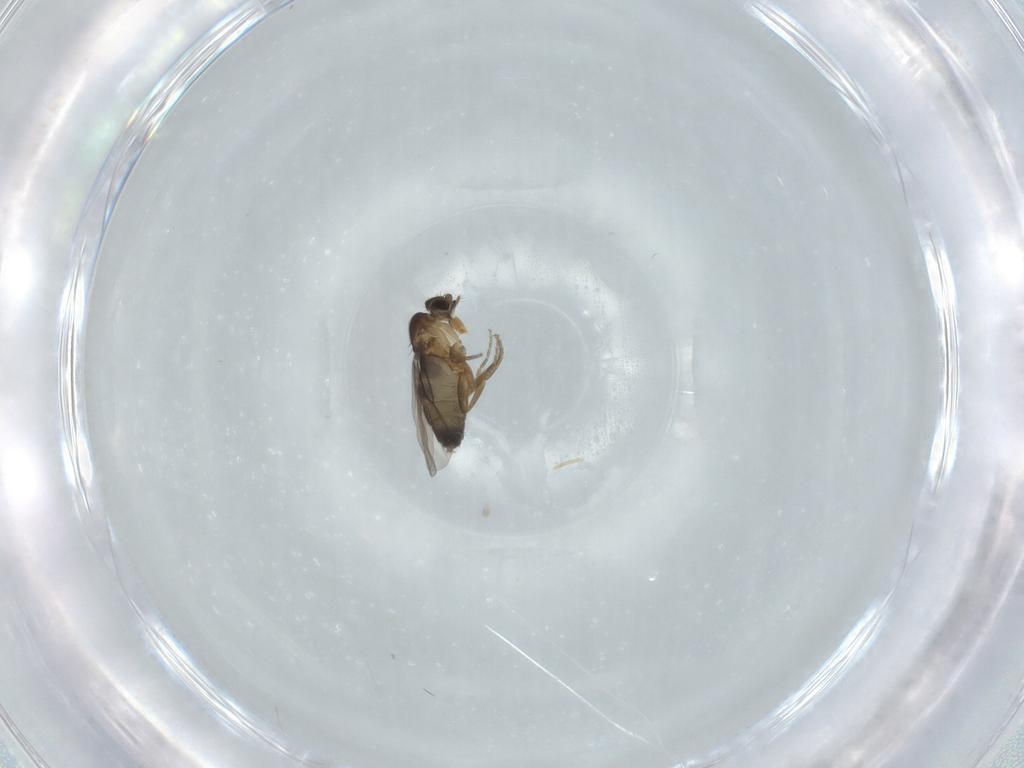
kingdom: Animalia
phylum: Arthropoda
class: Insecta
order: Diptera
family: Phoridae
